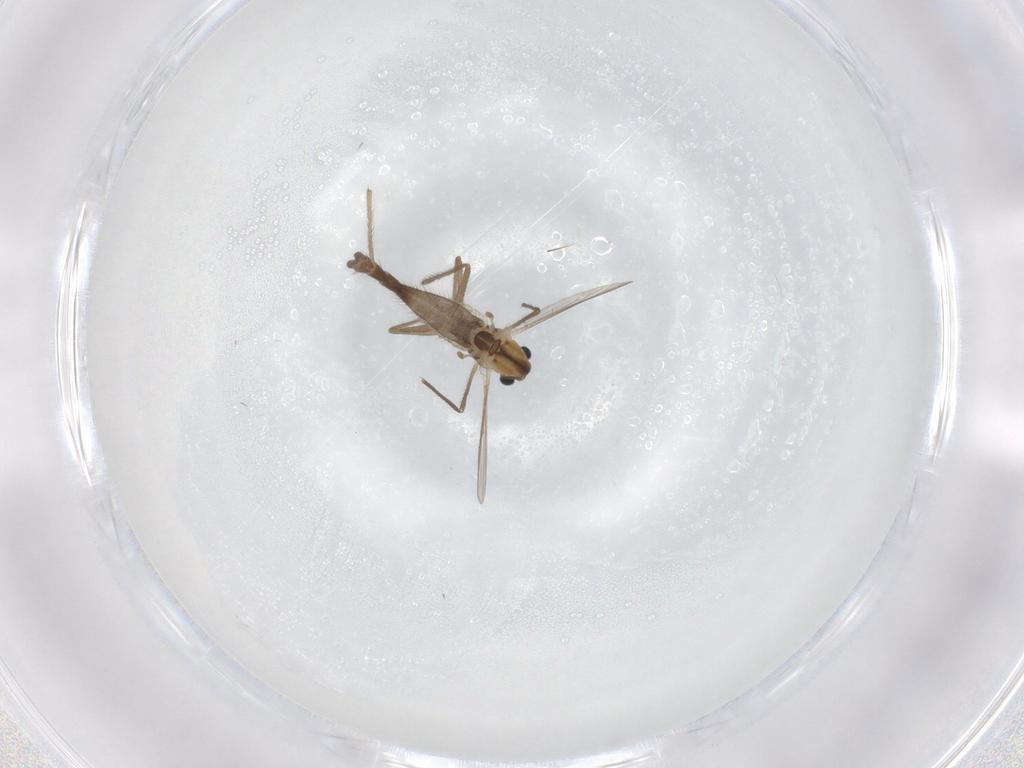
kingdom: Animalia
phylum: Arthropoda
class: Insecta
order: Diptera
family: Chironomidae
